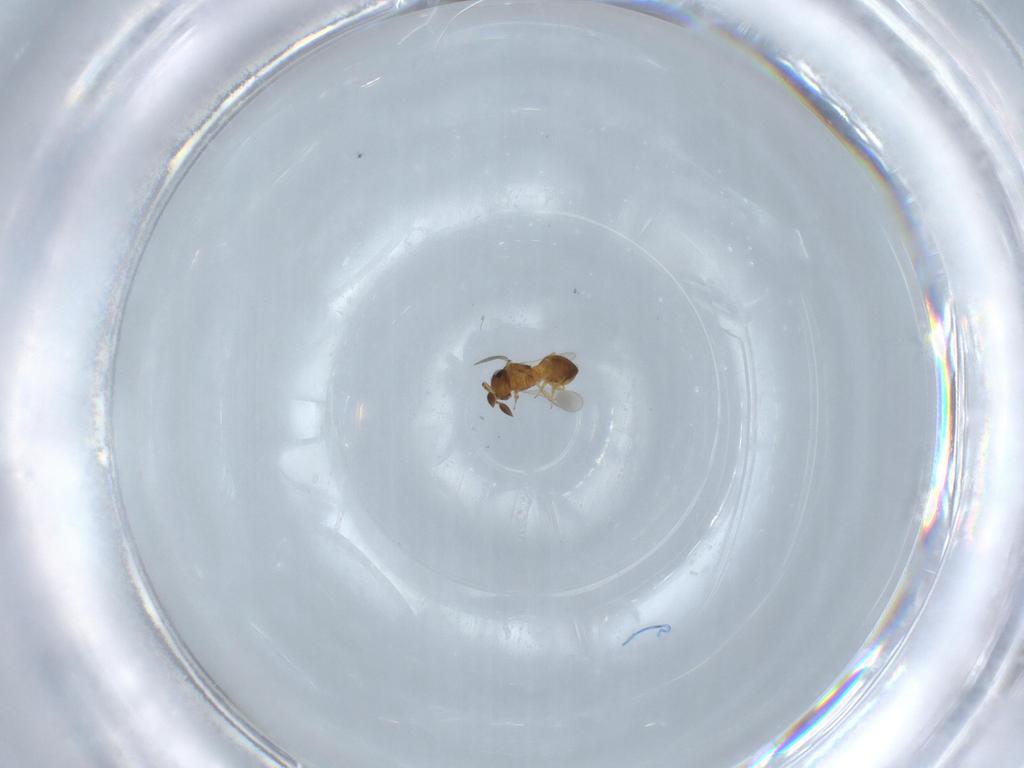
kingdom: Animalia
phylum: Arthropoda
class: Insecta
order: Hymenoptera
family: Scelionidae
